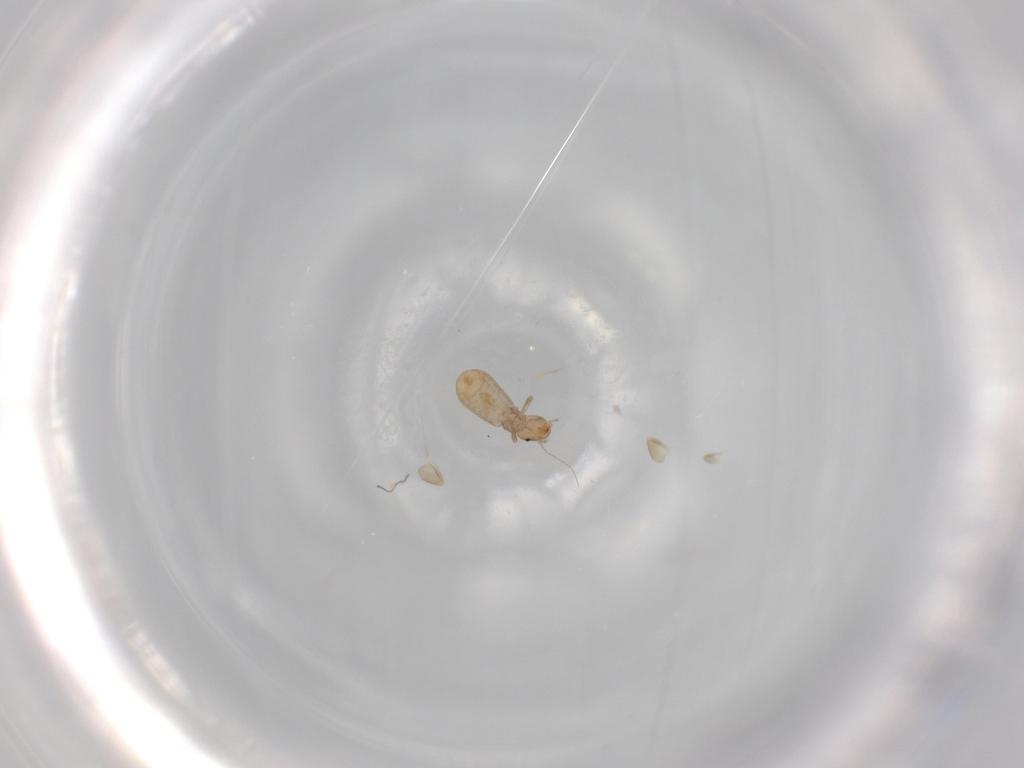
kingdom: Animalia
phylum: Arthropoda
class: Insecta
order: Psocodea
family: Liposcelididae
